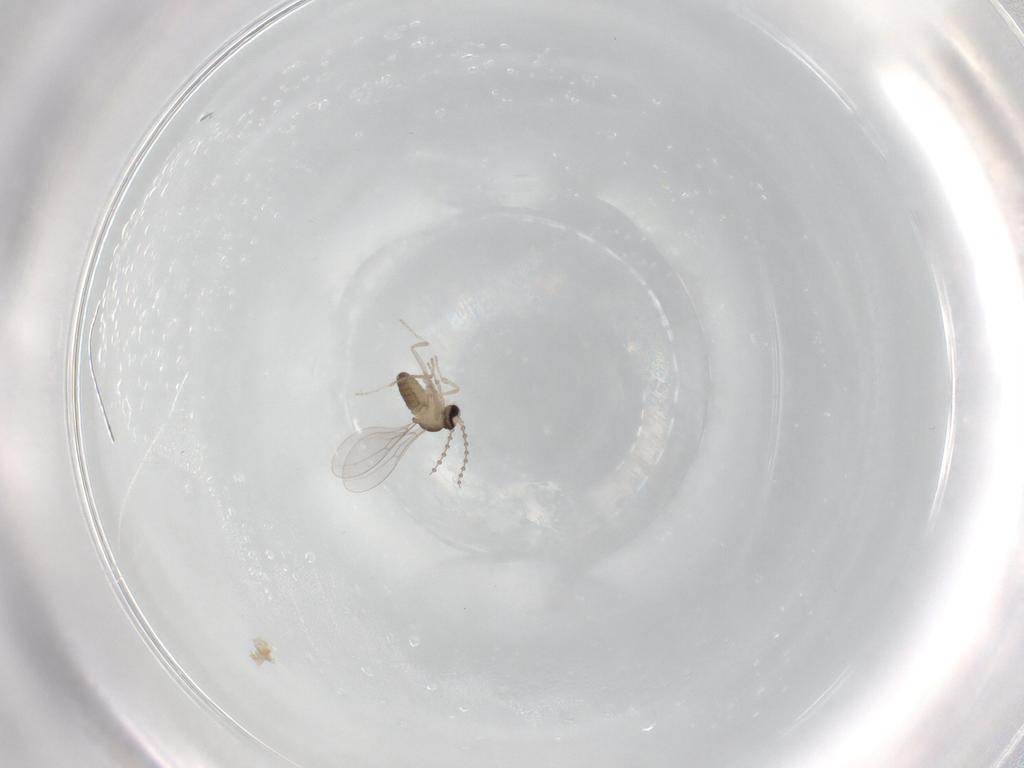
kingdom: Animalia
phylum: Arthropoda
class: Insecta
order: Diptera
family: Cecidomyiidae
